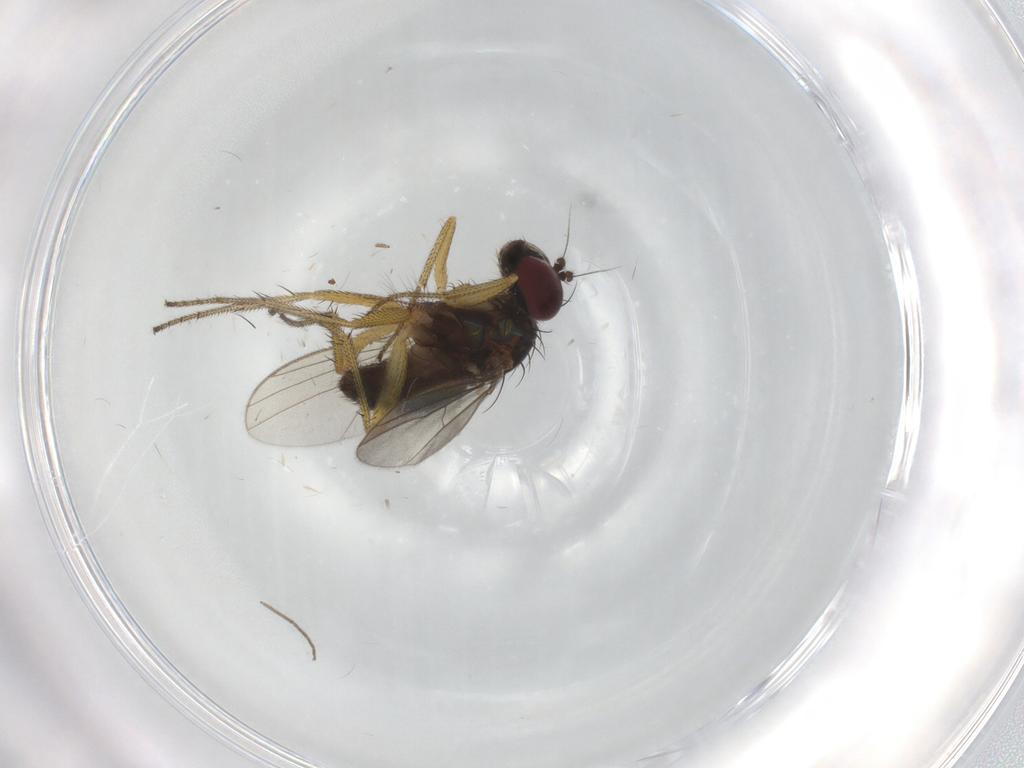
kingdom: Animalia
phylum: Arthropoda
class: Insecta
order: Diptera
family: Chironomidae
